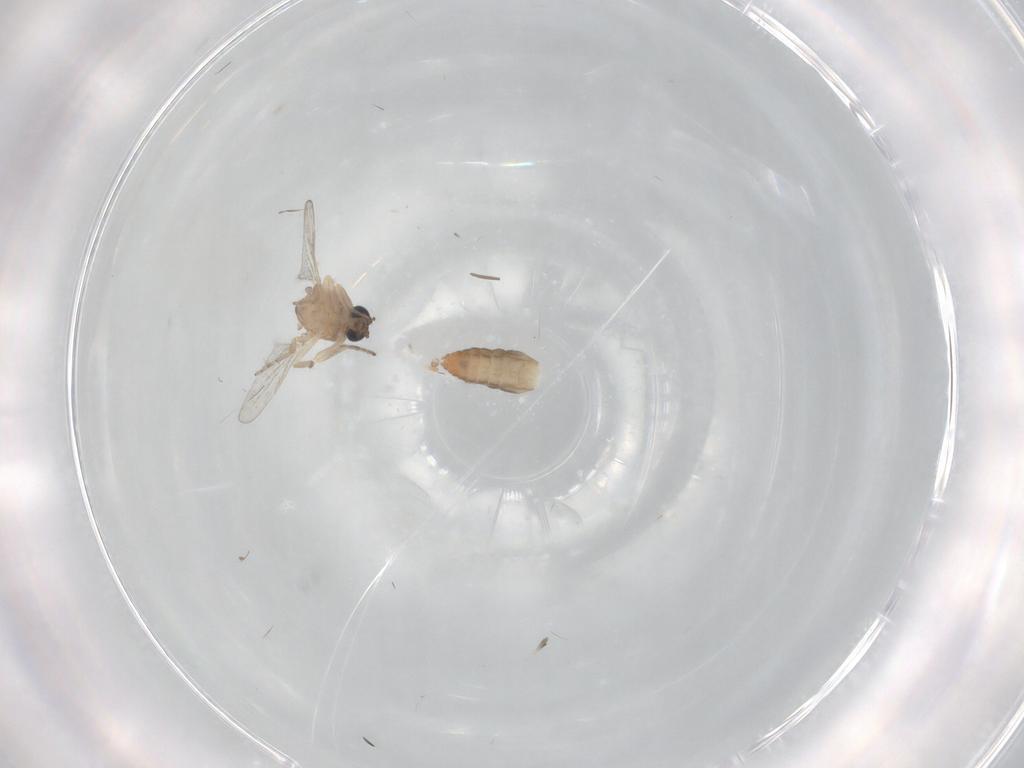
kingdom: Animalia
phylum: Arthropoda
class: Insecta
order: Diptera
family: Ceratopogonidae
